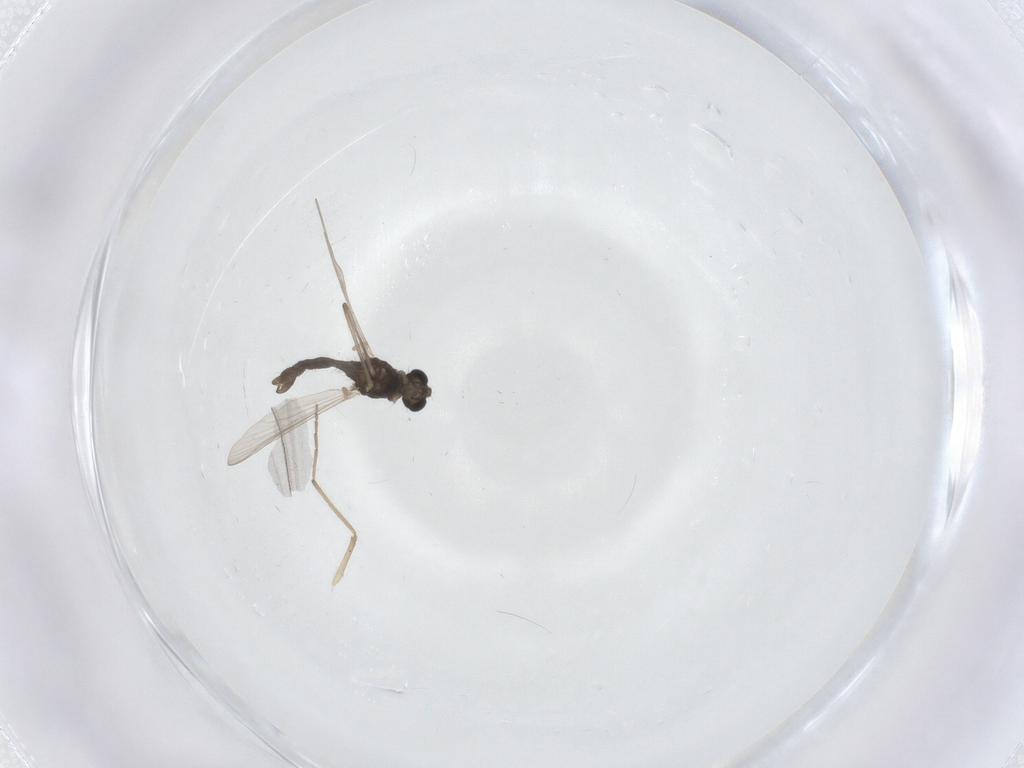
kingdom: Animalia
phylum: Arthropoda
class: Insecta
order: Diptera
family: Chironomidae
